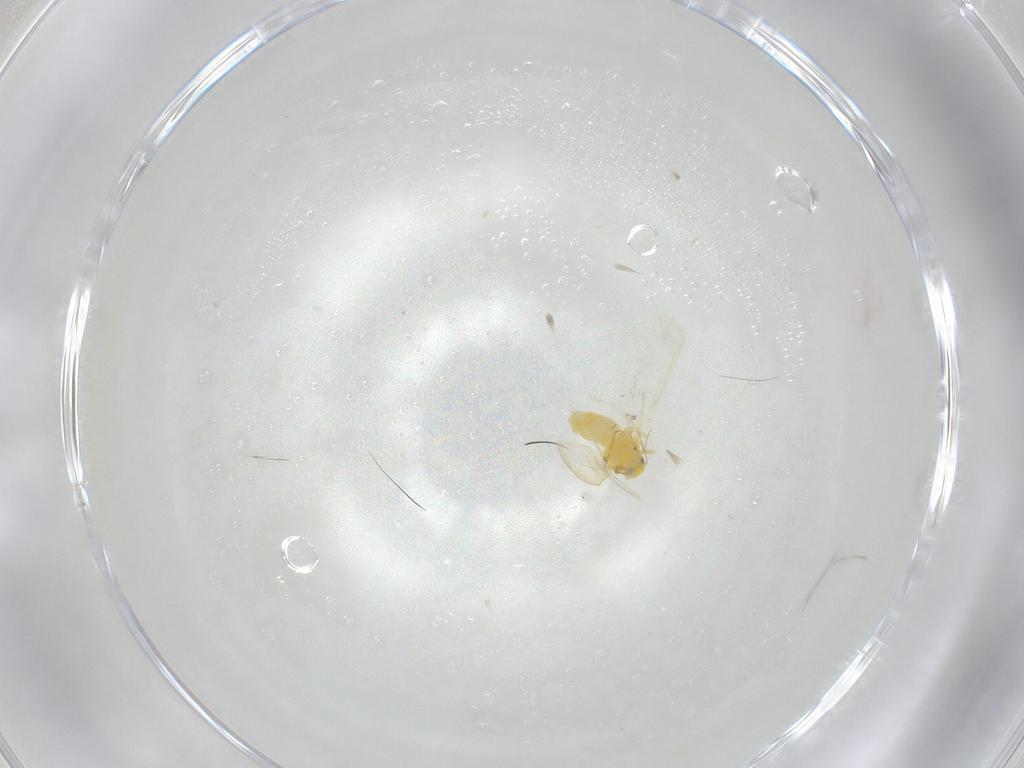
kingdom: Animalia
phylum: Arthropoda
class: Insecta
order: Hemiptera
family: Aleyrodidae
